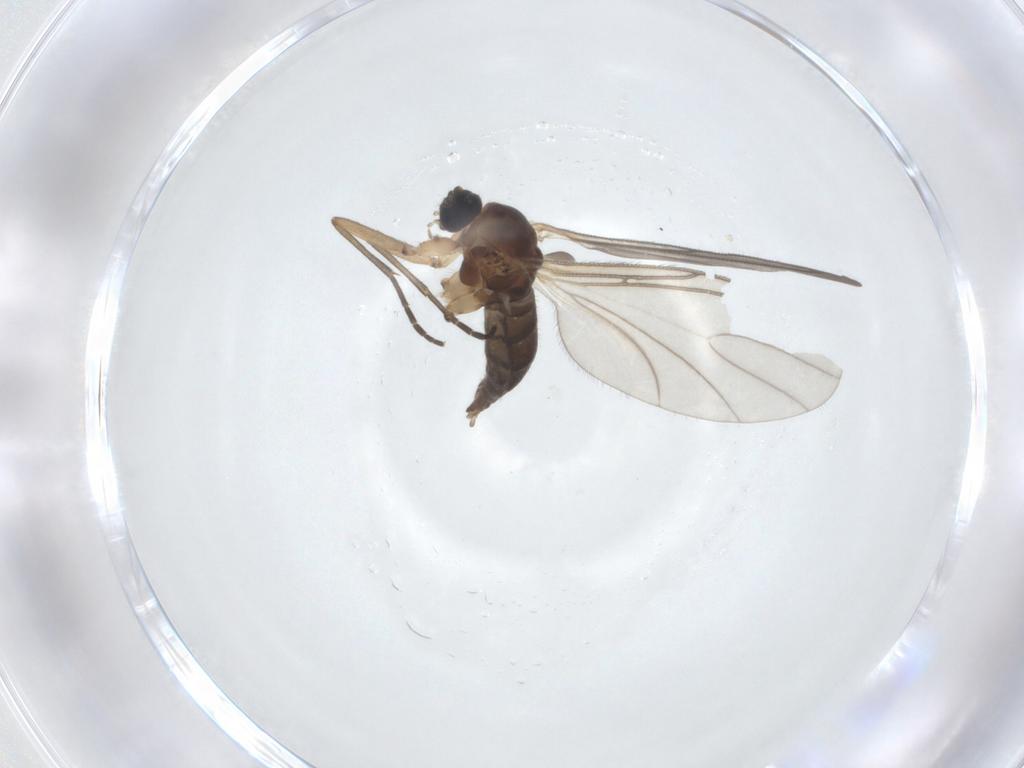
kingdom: Animalia
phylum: Arthropoda
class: Insecta
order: Diptera
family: Sciaridae
